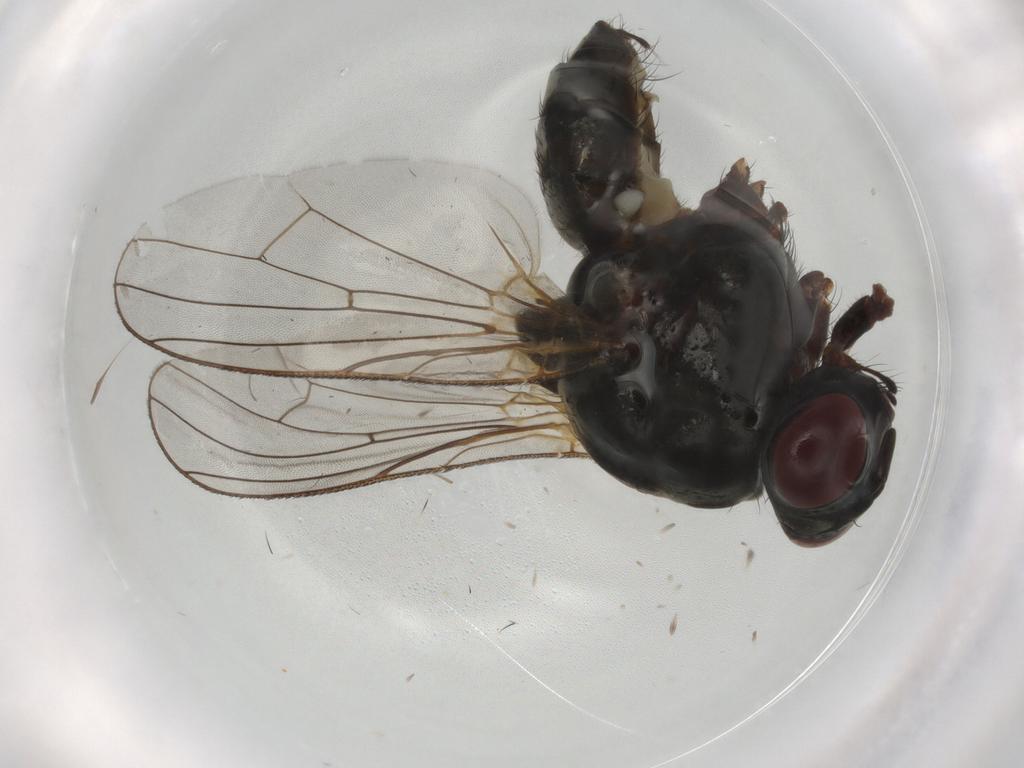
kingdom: Animalia
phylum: Arthropoda
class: Insecta
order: Diptera
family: Anthomyiidae
